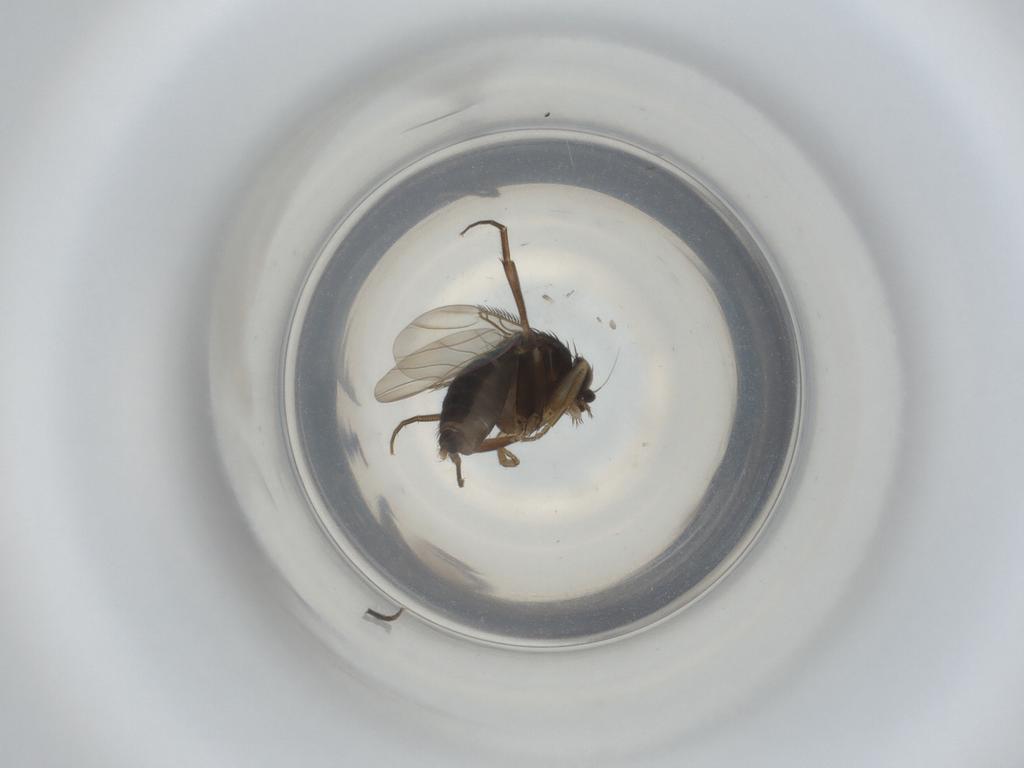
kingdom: Animalia
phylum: Arthropoda
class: Insecta
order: Diptera
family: Phoridae
